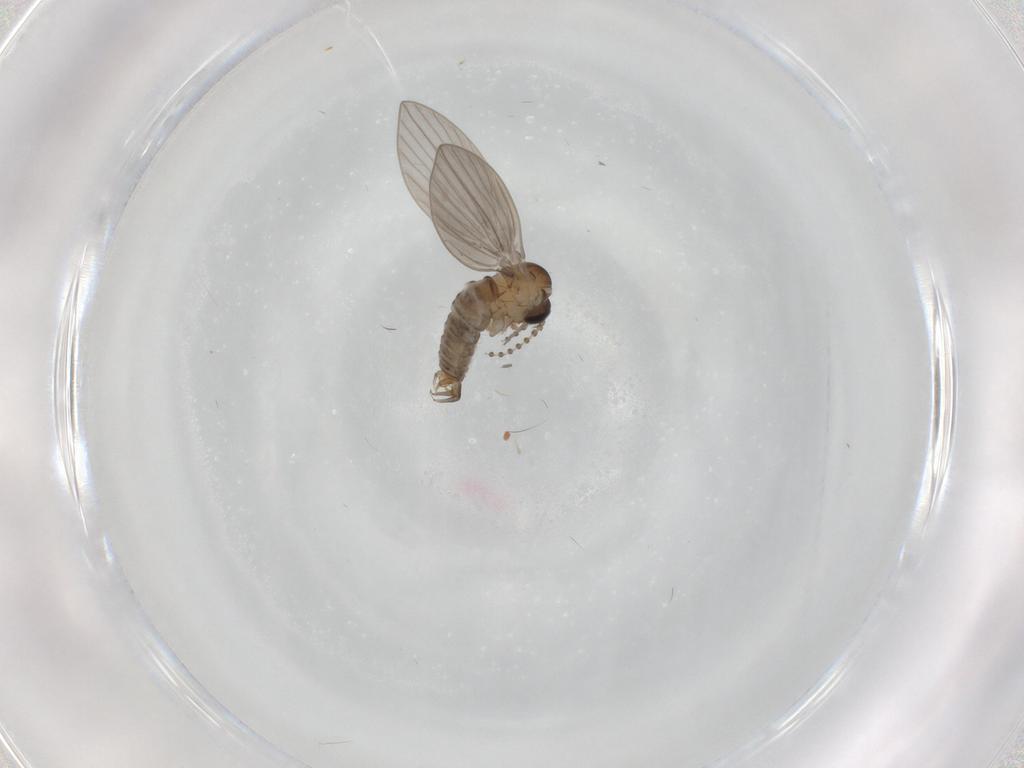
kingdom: Animalia
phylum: Arthropoda
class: Insecta
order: Diptera
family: Psychodidae
